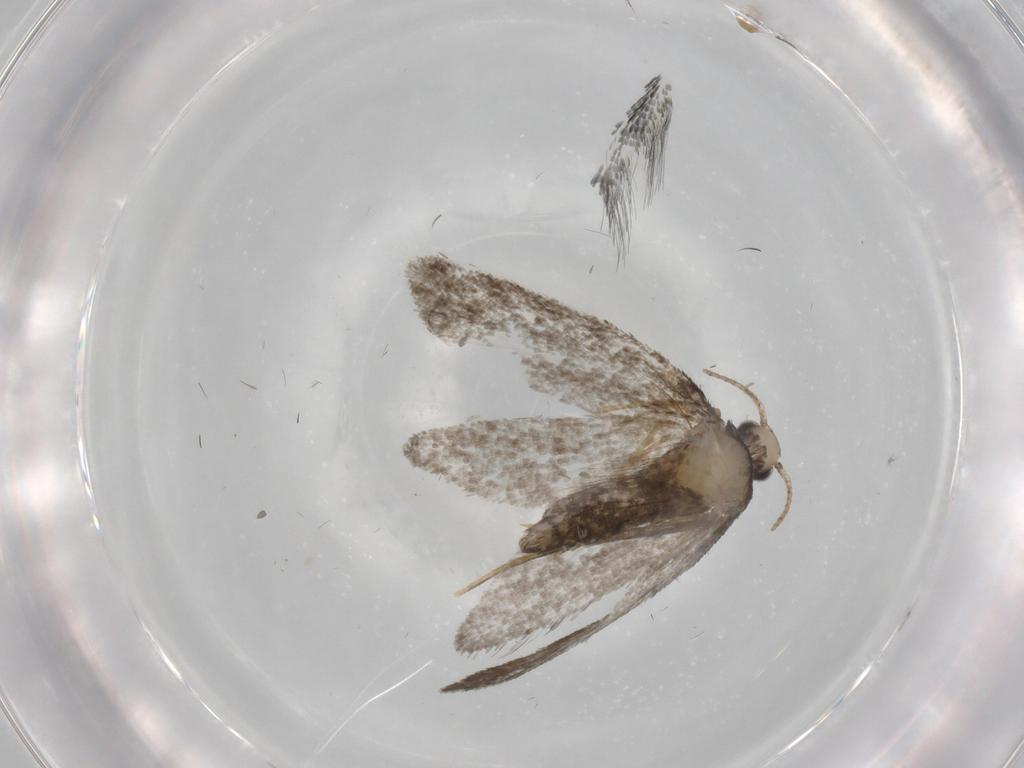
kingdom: Animalia
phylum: Arthropoda
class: Insecta
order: Lepidoptera
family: Psychidae
